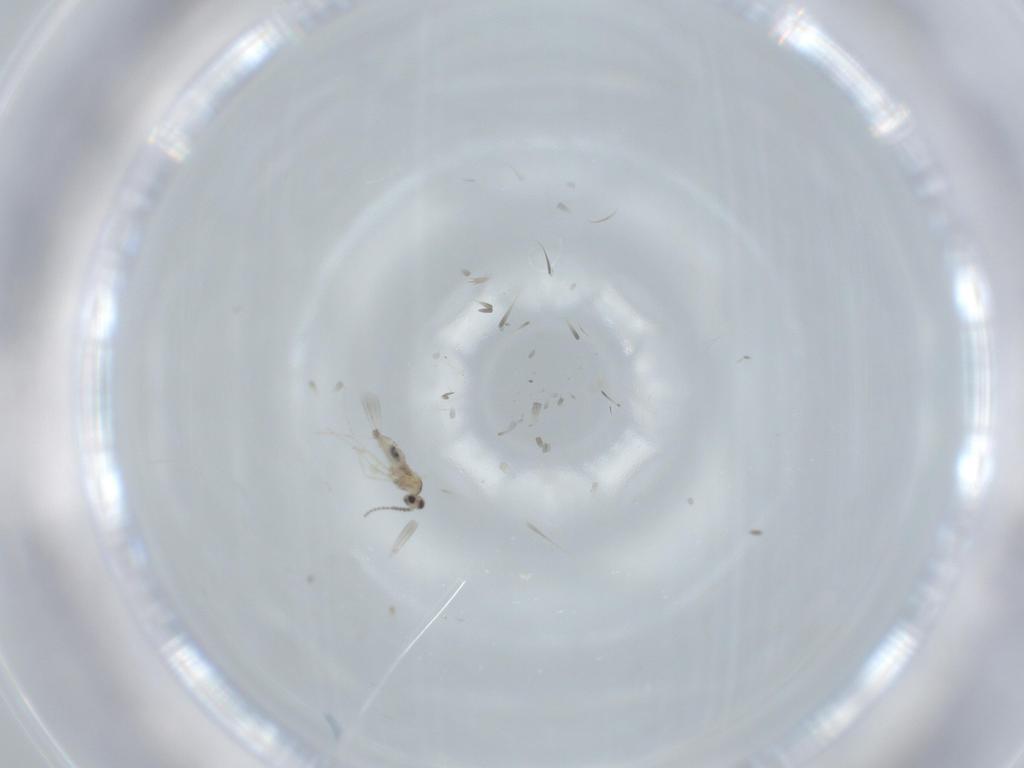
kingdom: Animalia
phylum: Arthropoda
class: Insecta
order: Diptera
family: Cecidomyiidae
